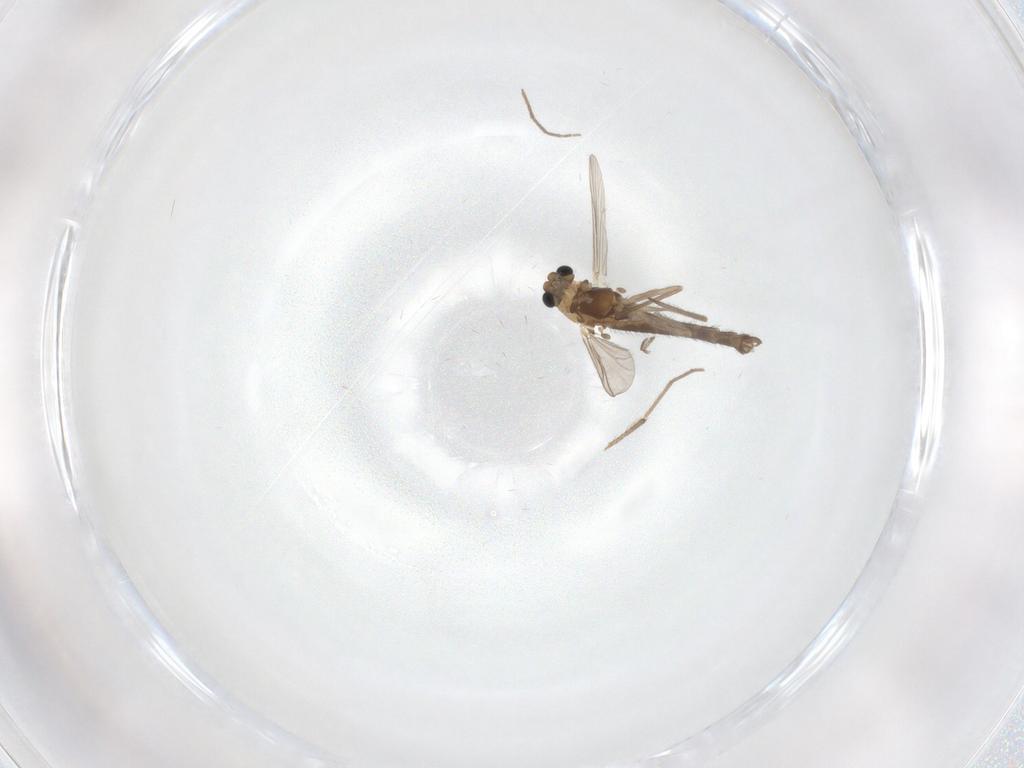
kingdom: Animalia
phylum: Arthropoda
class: Insecta
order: Diptera
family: Chironomidae
